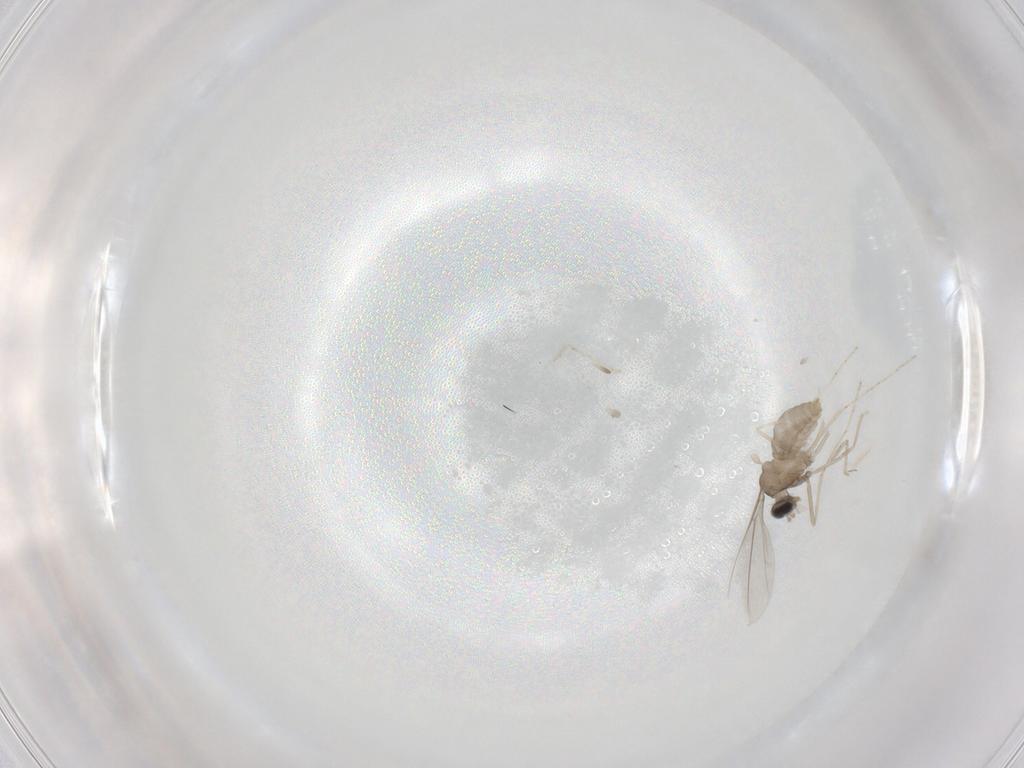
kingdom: Animalia
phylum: Arthropoda
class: Insecta
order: Diptera
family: Cecidomyiidae
